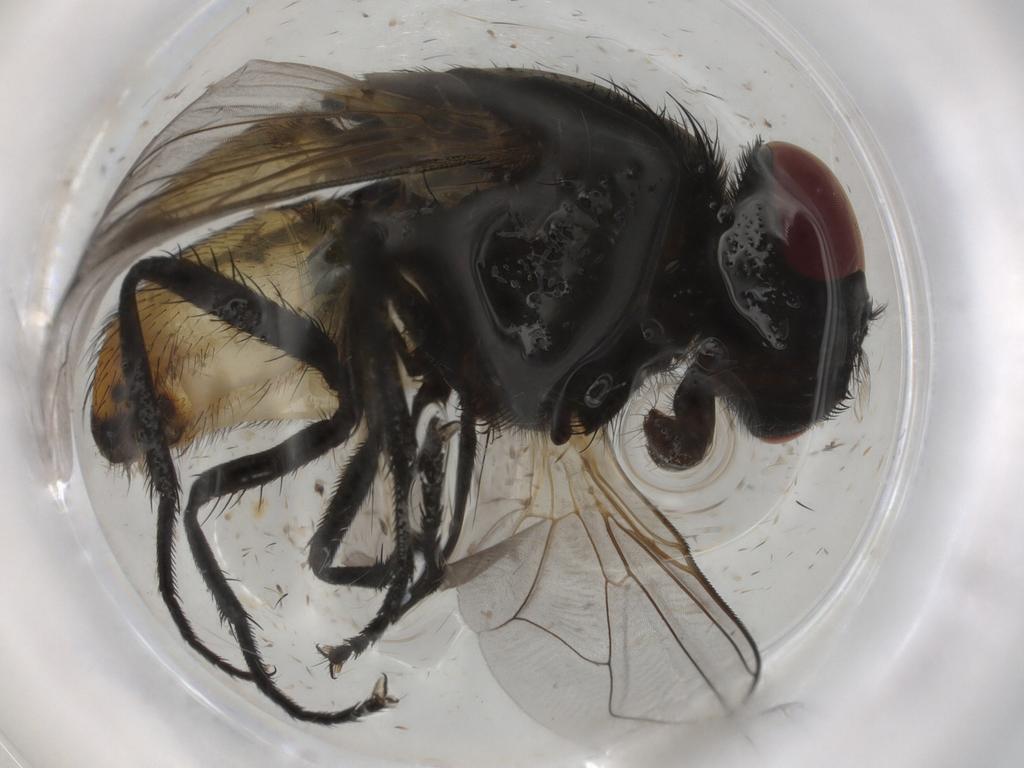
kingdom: Animalia
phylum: Arthropoda
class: Insecta
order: Diptera
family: Muscidae
